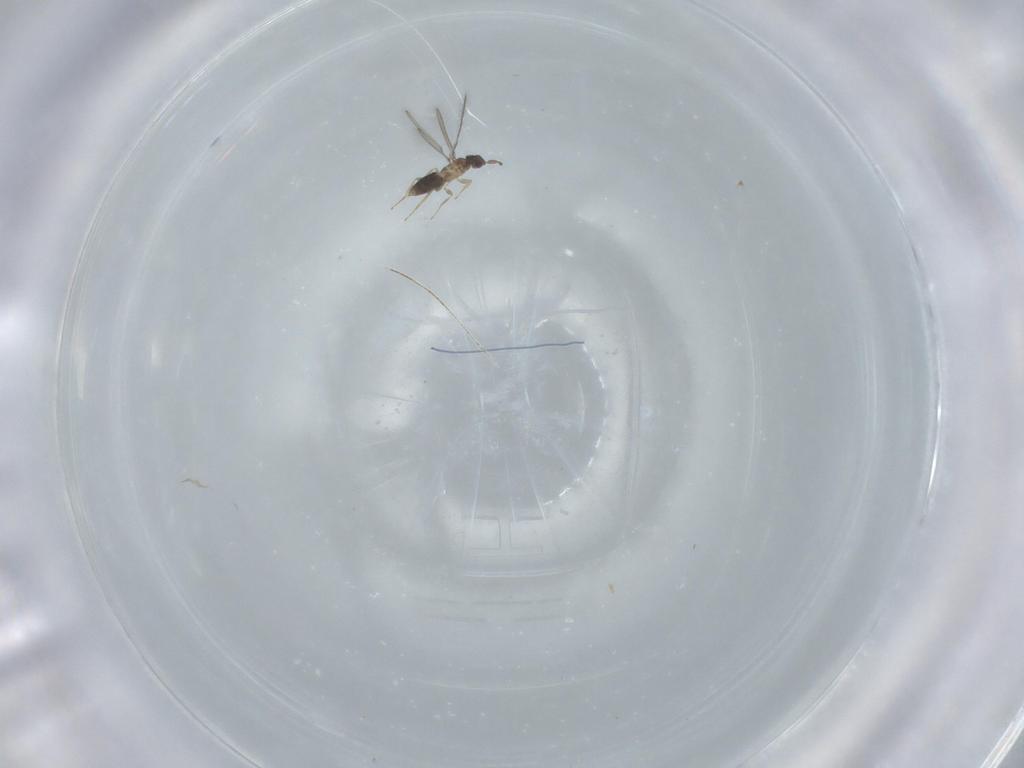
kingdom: Animalia
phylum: Arthropoda
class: Insecta
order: Hymenoptera
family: Mymaridae
